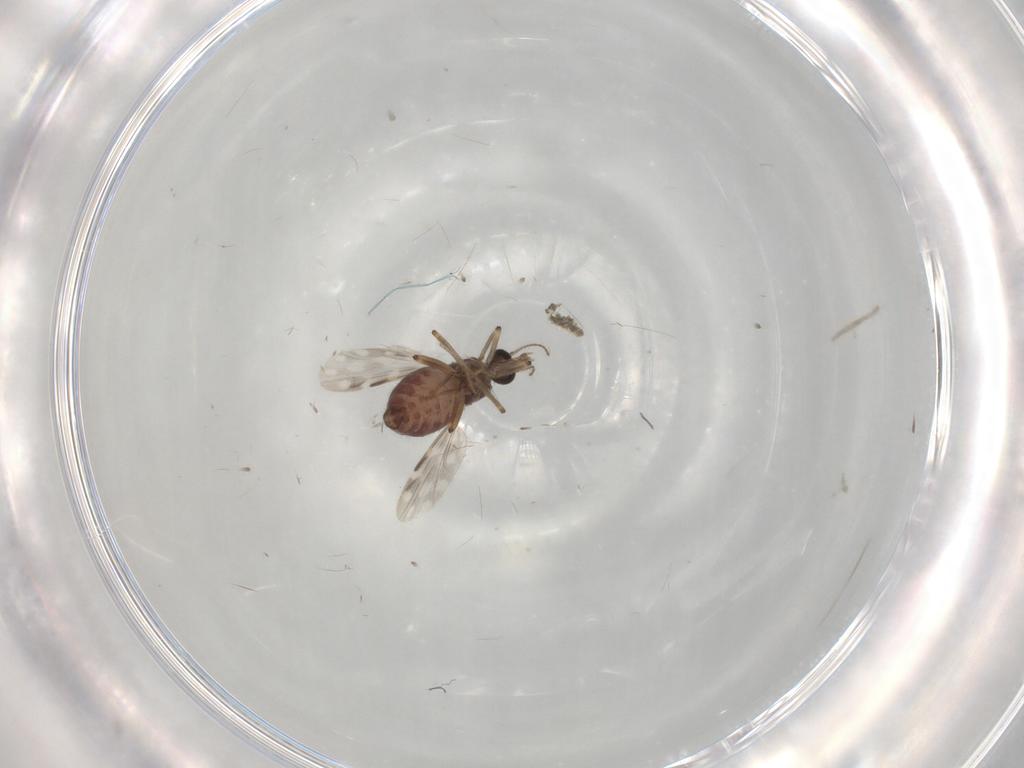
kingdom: Animalia
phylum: Arthropoda
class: Insecta
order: Diptera
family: Ceratopogonidae
